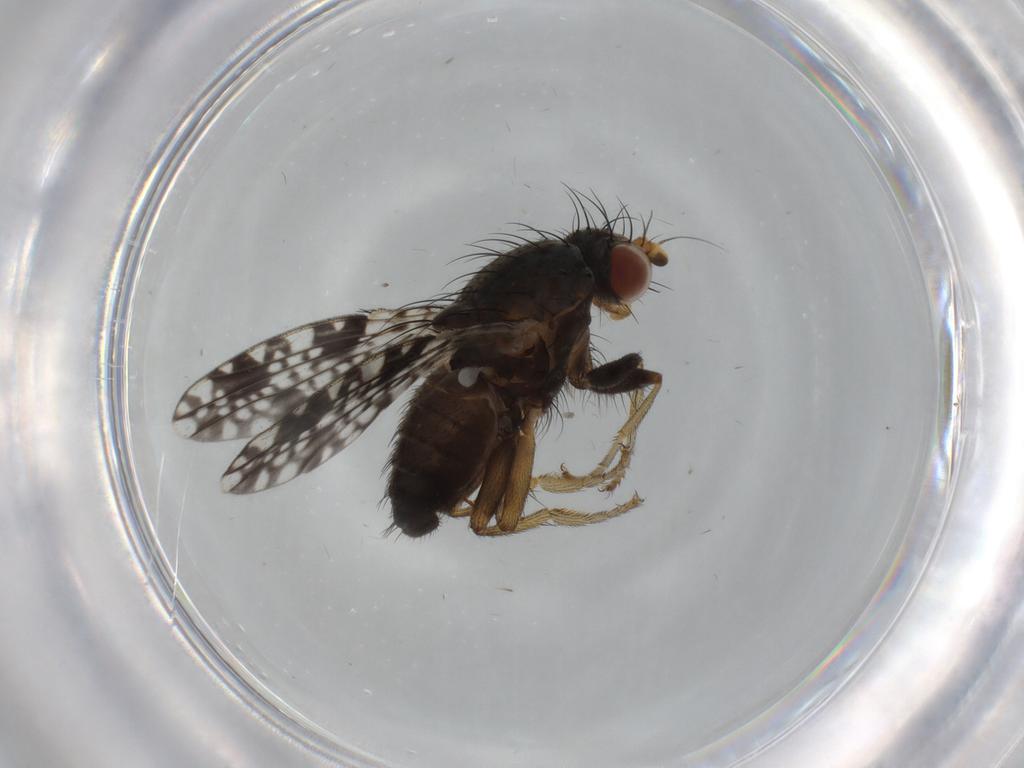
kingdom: Animalia
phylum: Arthropoda
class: Insecta
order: Diptera
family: Tephritidae
